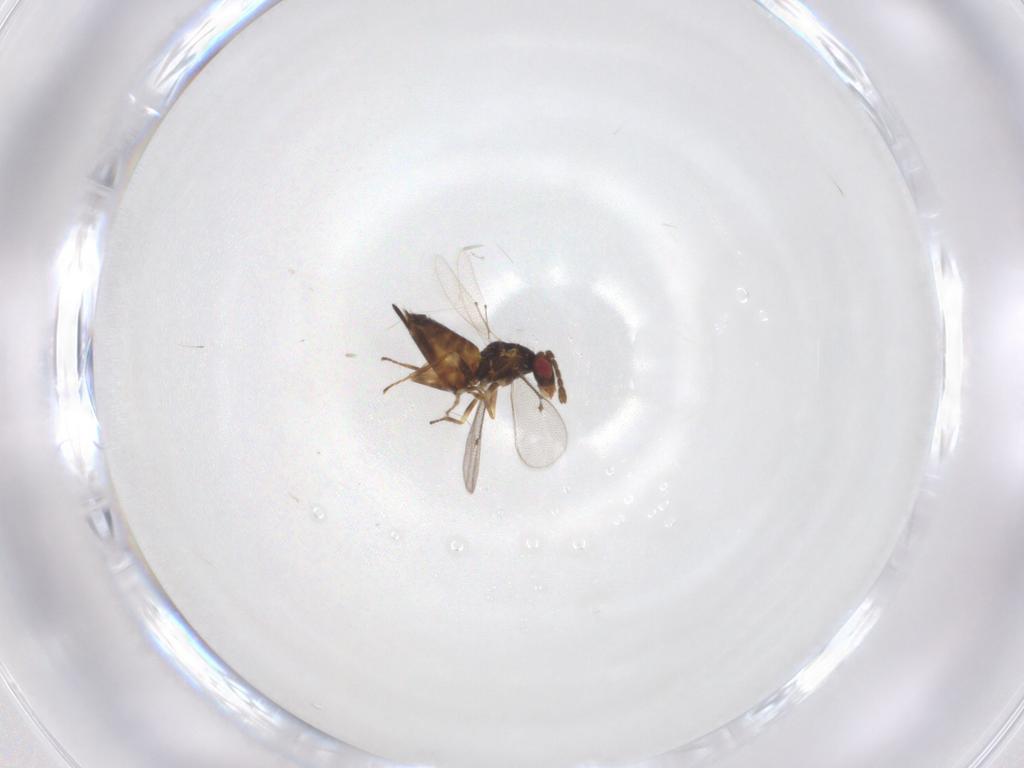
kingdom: Animalia
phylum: Arthropoda
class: Insecta
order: Hymenoptera
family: Eulophidae
